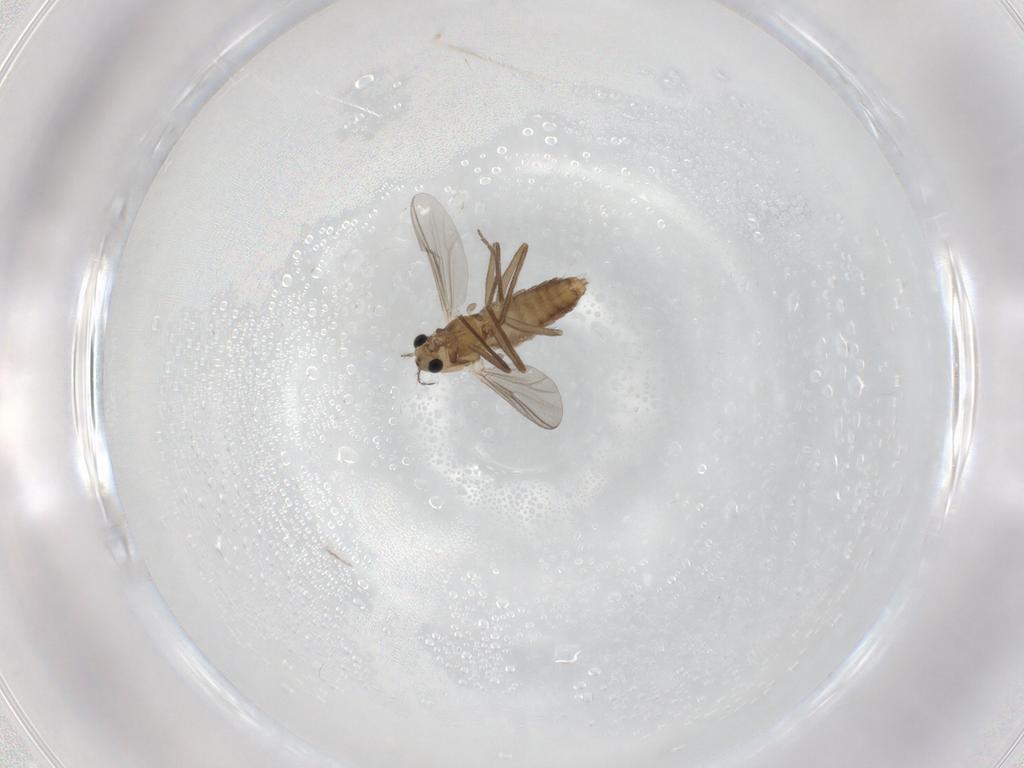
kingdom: Animalia
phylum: Arthropoda
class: Insecta
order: Diptera
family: Chironomidae
